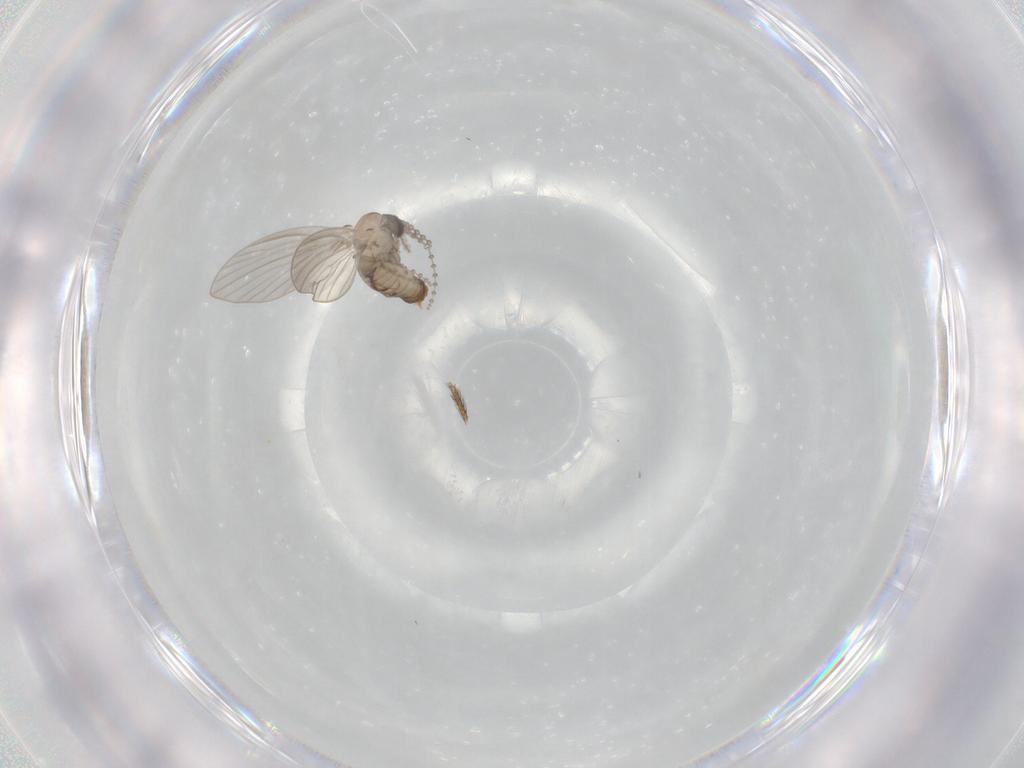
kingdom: Animalia
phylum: Arthropoda
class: Insecta
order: Diptera
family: Psychodidae
